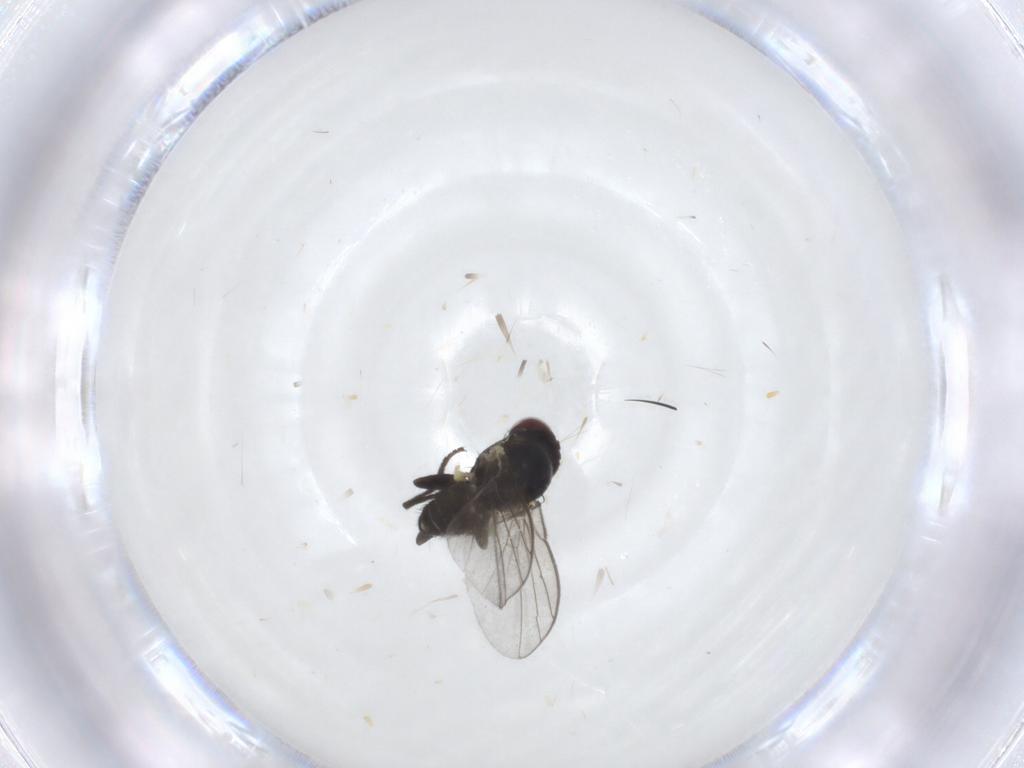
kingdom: Animalia
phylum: Arthropoda
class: Insecta
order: Diptera
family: Agromyzidae
